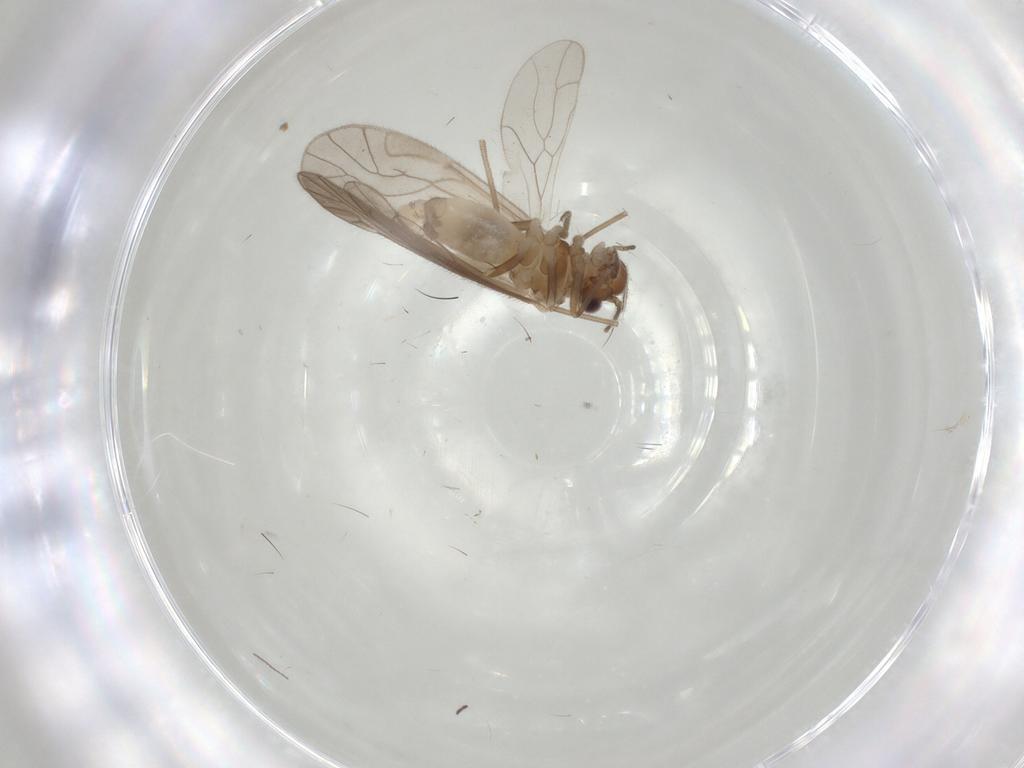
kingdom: Animalia
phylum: Arthropoda
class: Insecta
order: Psocodea
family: Caeciliusidae
